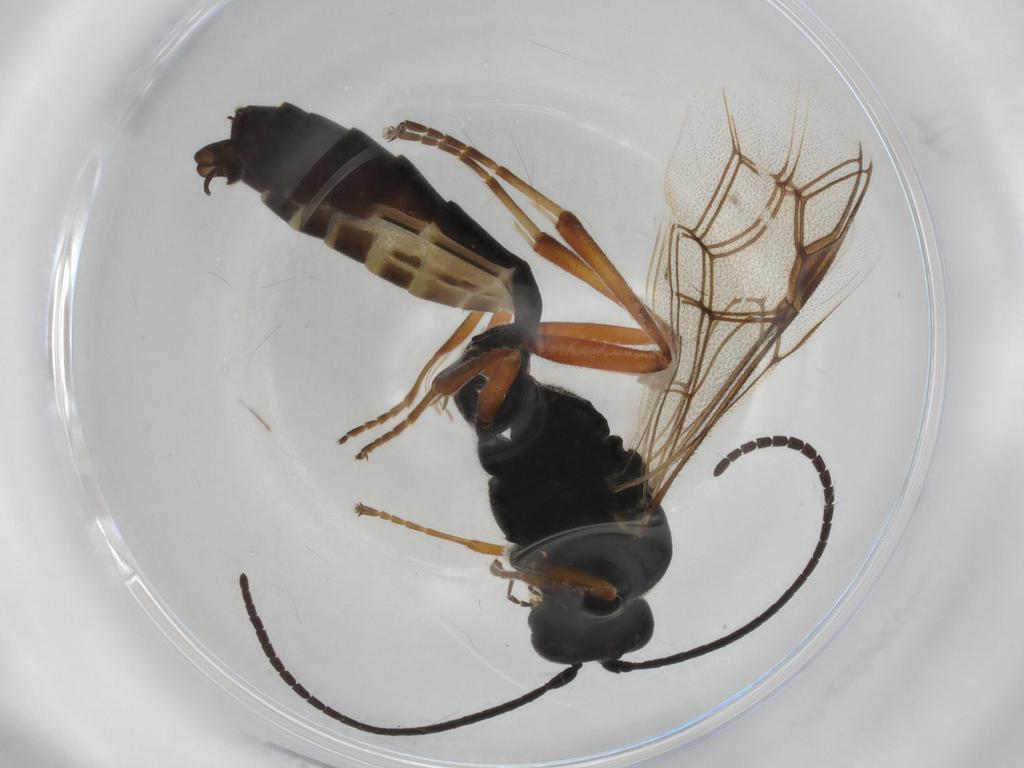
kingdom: Animalia
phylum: Arthropoda
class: Insecta
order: Hymenoptera
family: Ichneumonidae
